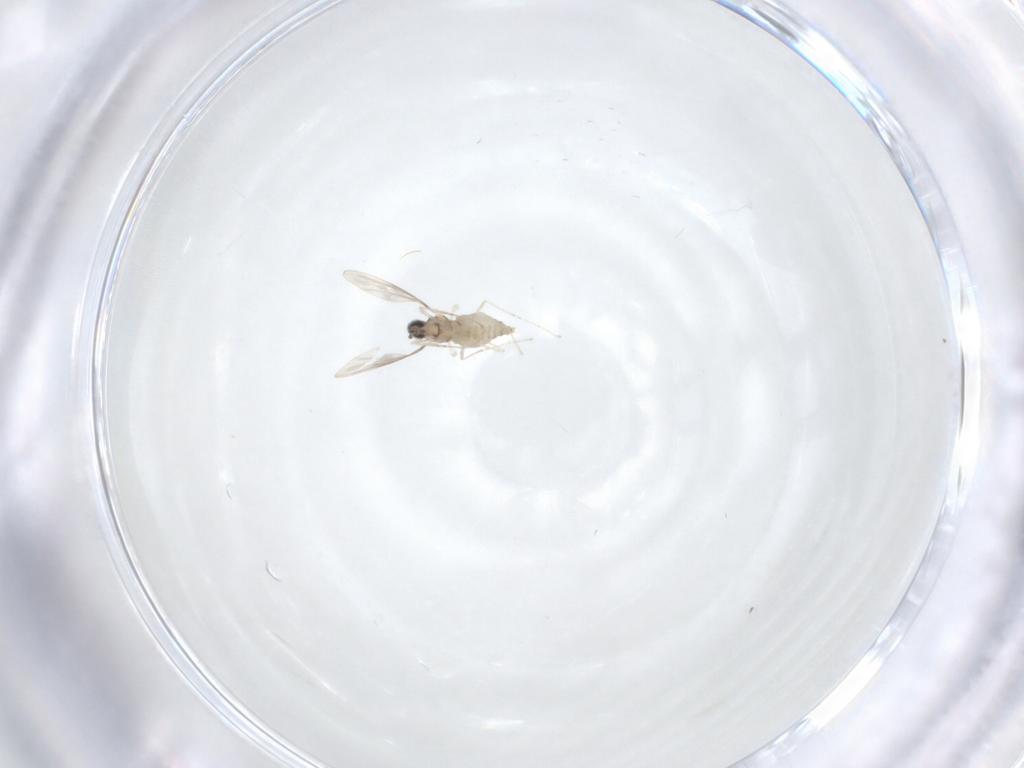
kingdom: Animalia
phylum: Arthropoda
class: Insecta
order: Diptera
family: Cecidomyiidae
